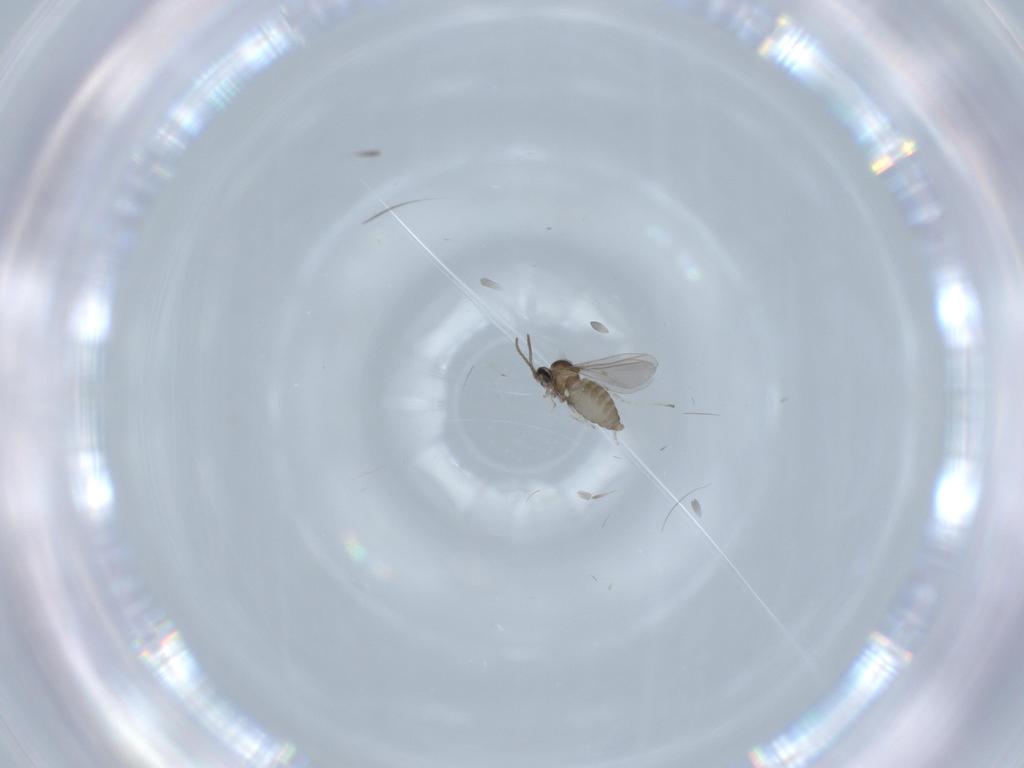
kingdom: Animalia
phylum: Arthropoda
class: Insecta
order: Diptera
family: Cecidomyiidae
